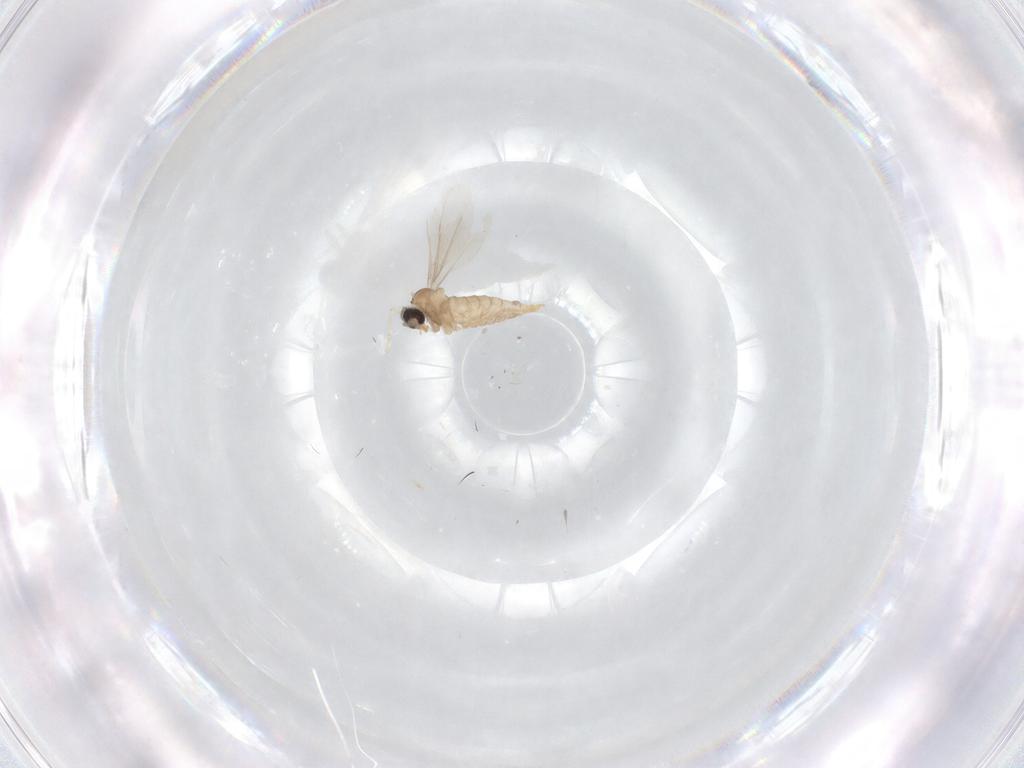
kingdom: Animalia
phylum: Arthropoda
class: Insecta
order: Diptera
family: Cecidomyiidae
